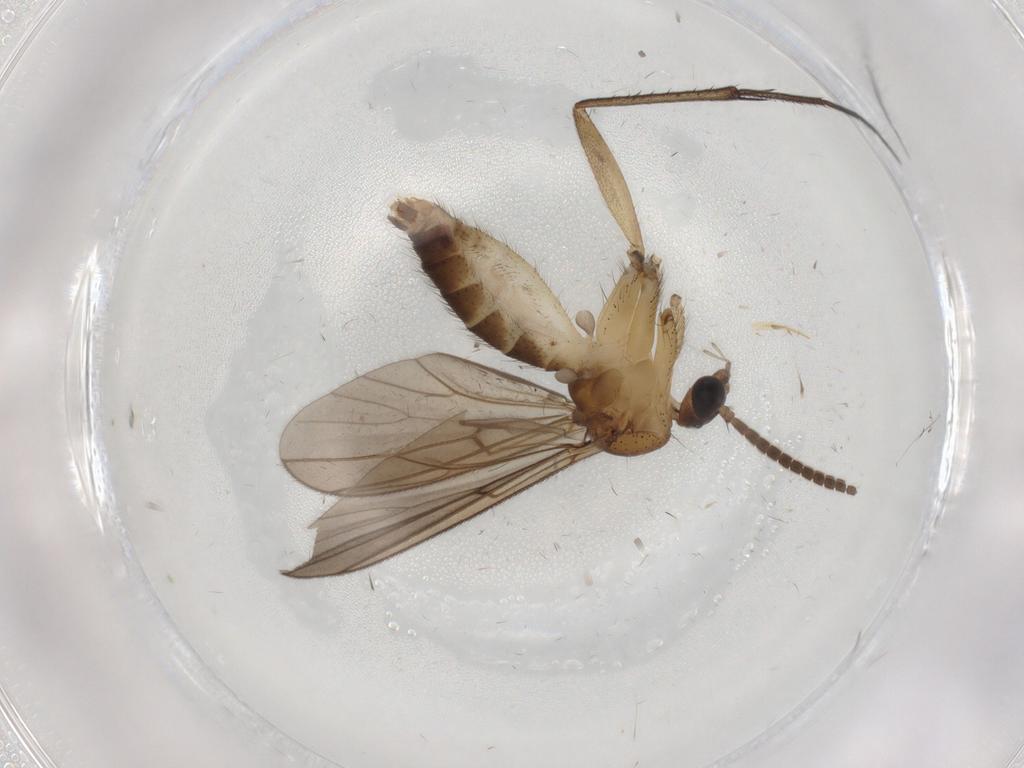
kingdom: Animalia
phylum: Arthropoda
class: Insecta
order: Diptera
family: Phoridae
